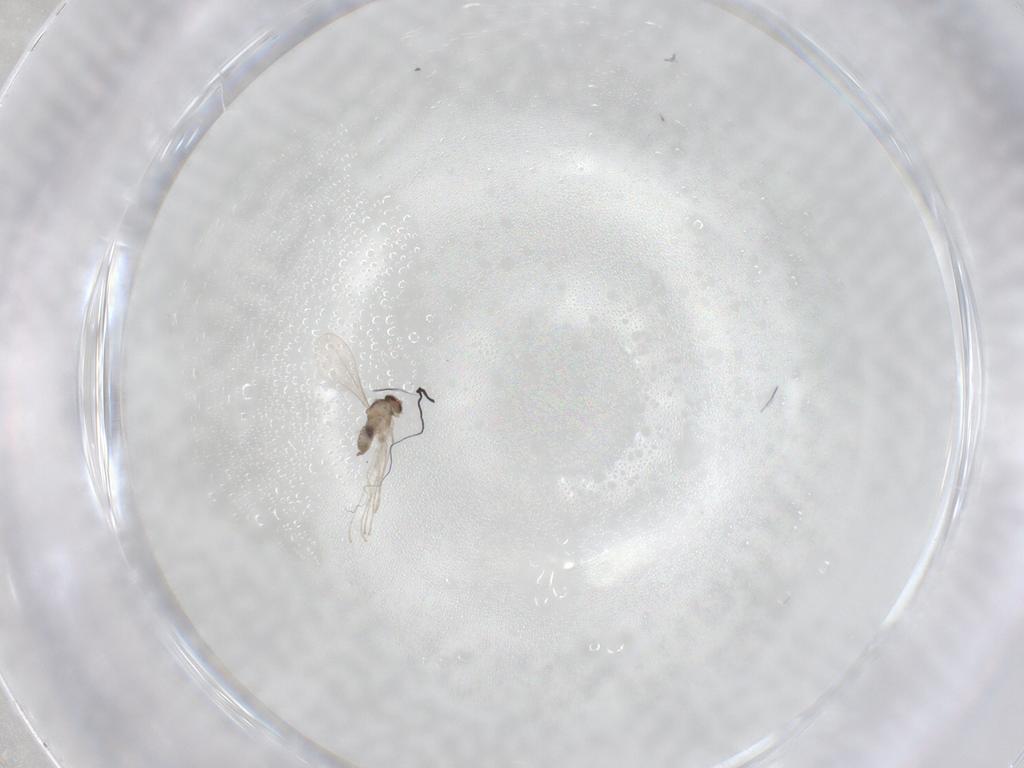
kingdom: Animalia
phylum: Arthropoda
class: Insecta
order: Diptera
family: Cecidomyiidae
